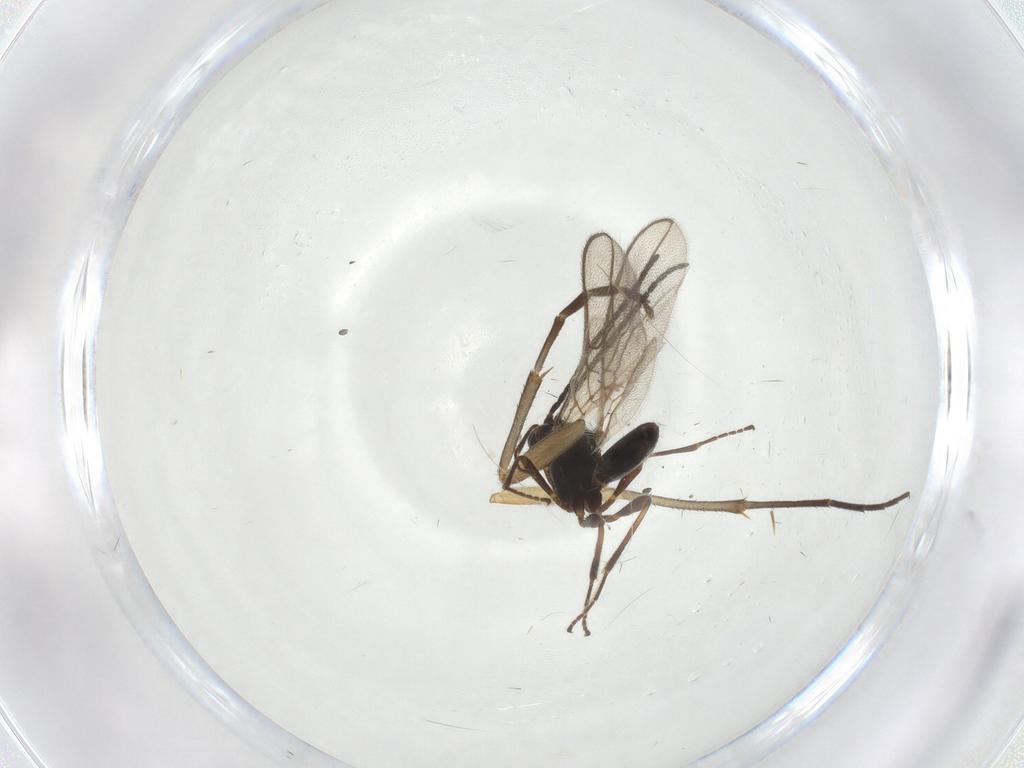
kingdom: Animalia
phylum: Arthropoda
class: Insecta
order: Hymenoptera
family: Braconidae
